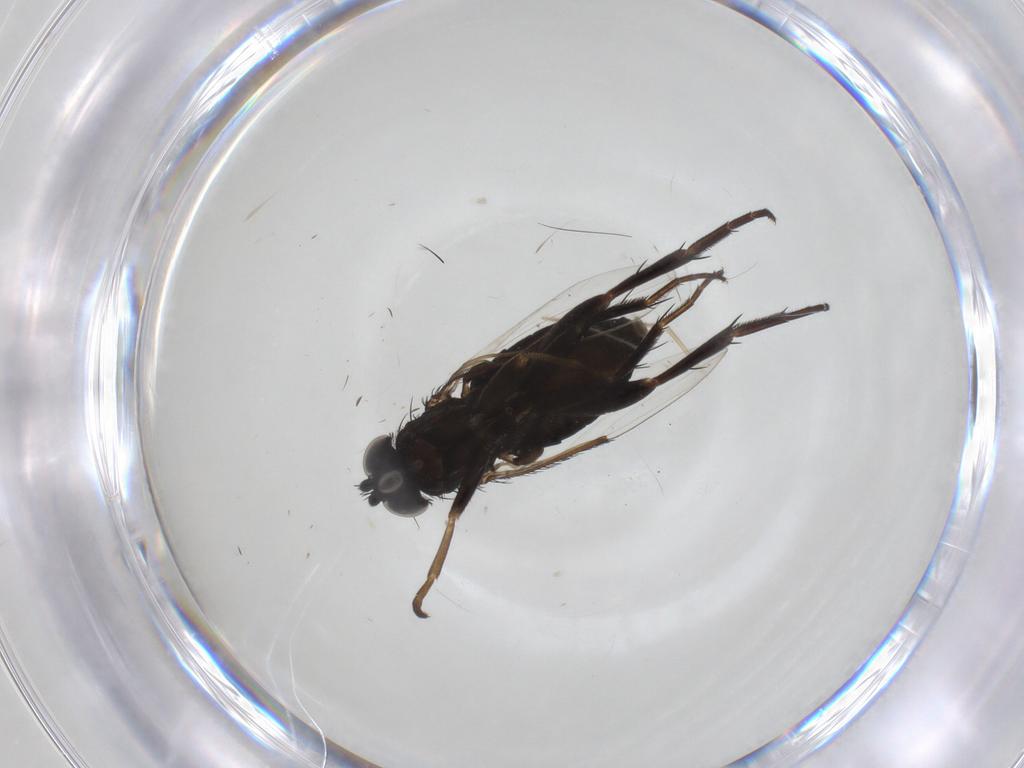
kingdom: Animalia
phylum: Arthropoda
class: Insecta
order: Diptera
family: Phoridae
